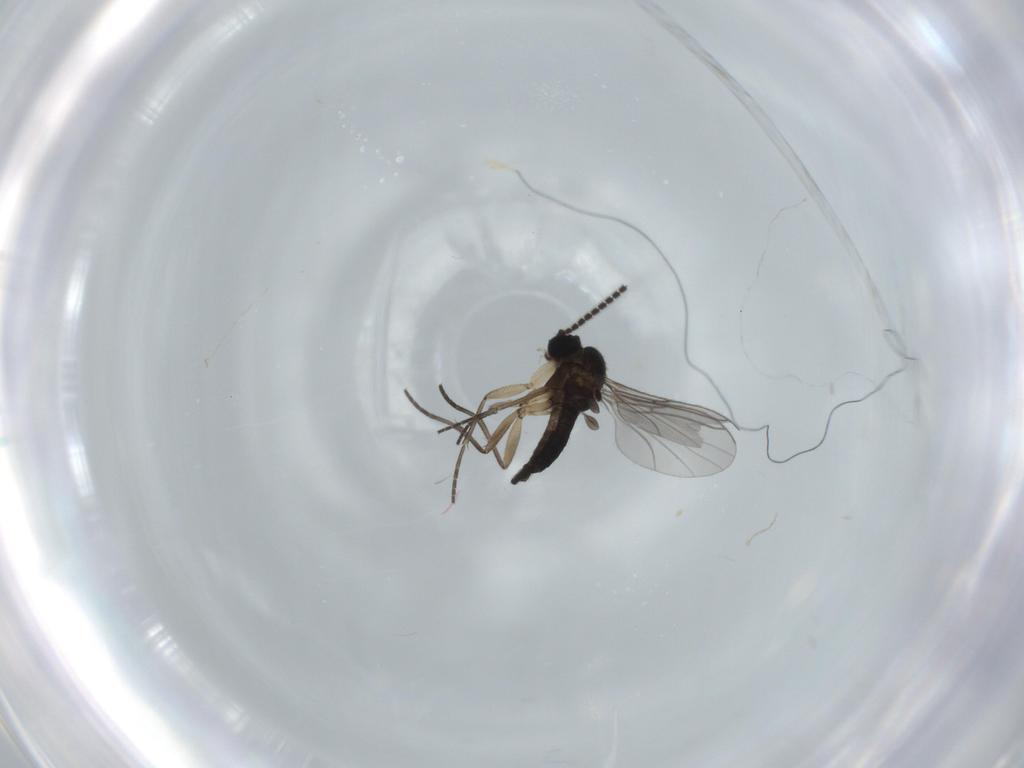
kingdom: Animalia
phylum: Arthropoda
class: Insecta
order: Diptera
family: Sciaridae
